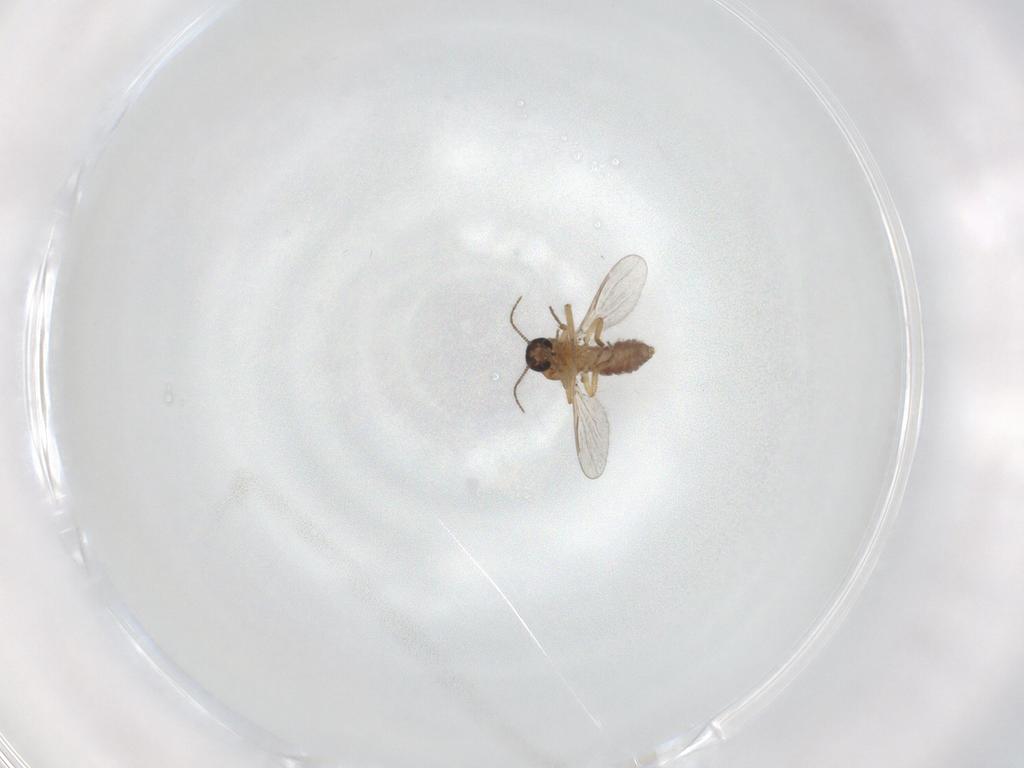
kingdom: Animalia
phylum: Arthropoda
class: Insecta
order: Diptera
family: Ceratopogonidae
